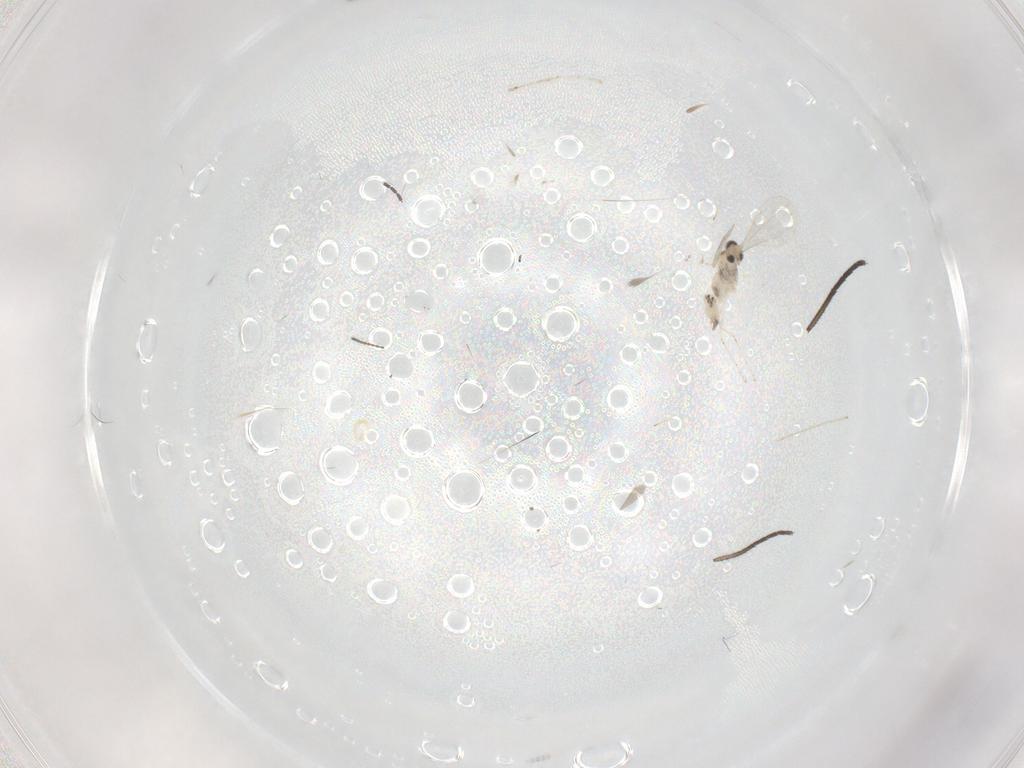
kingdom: Animalia
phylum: Arthropoda
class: Insecta
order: Diptera
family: Cecidomyiidae
